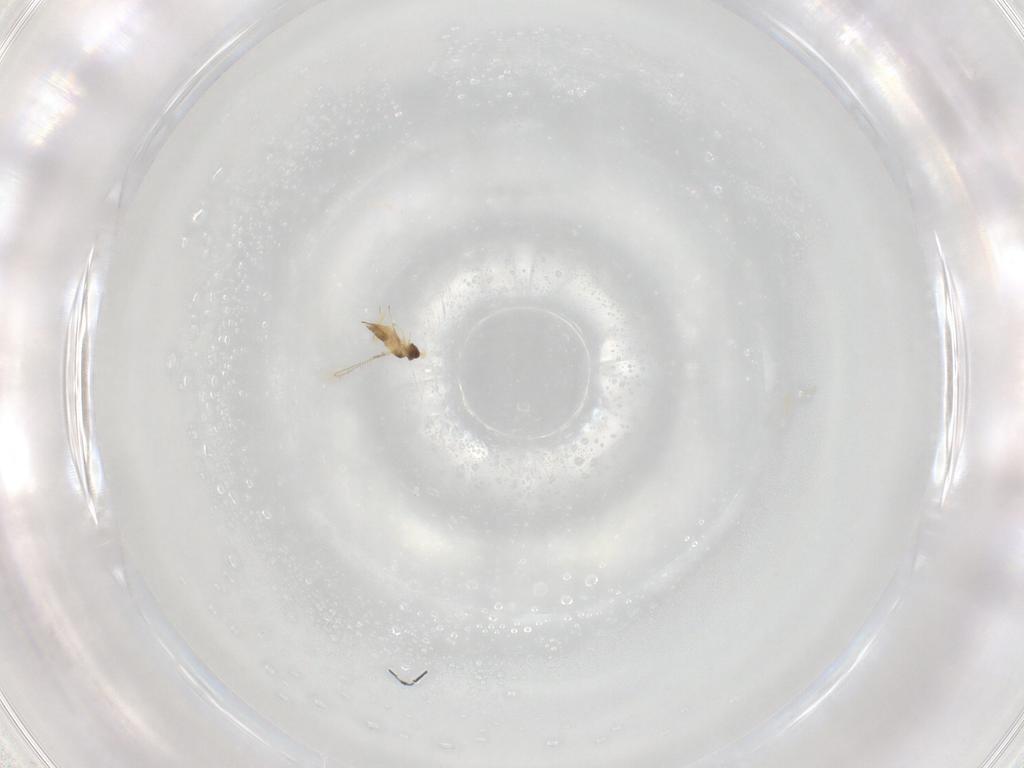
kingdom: Animalia
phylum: Arthropoda
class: Insecta
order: Hymenoptera
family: Mymaridae
